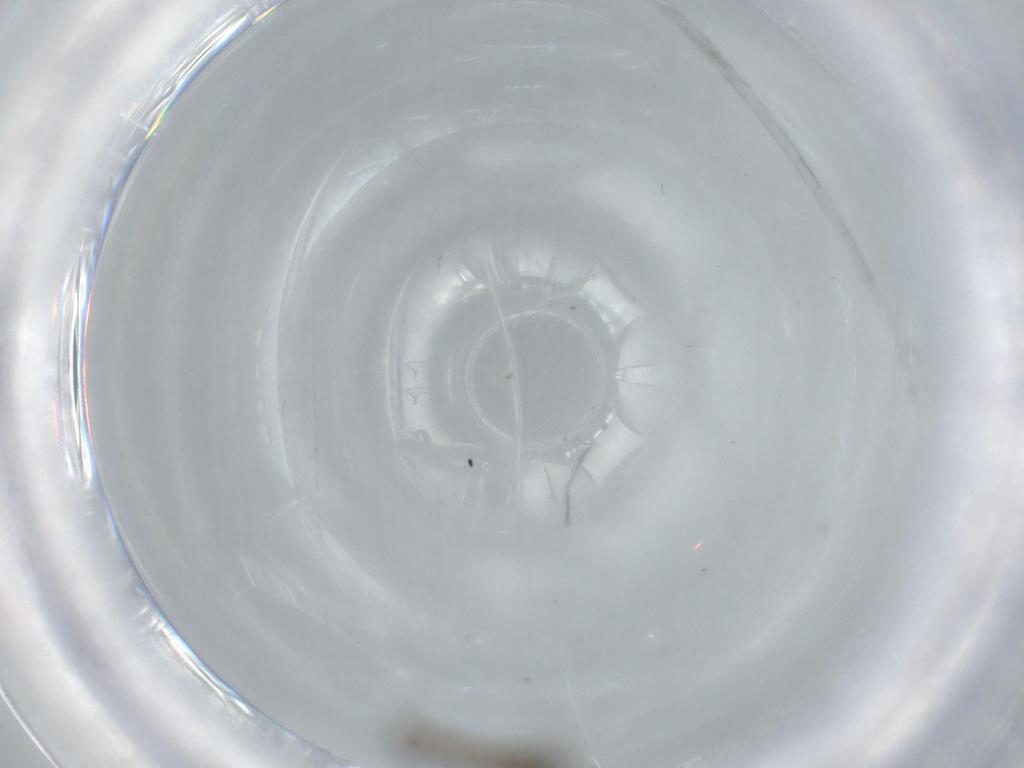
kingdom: Animalia
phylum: Arthropoda
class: Insecta
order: Diptera
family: Cecidomyiidae
